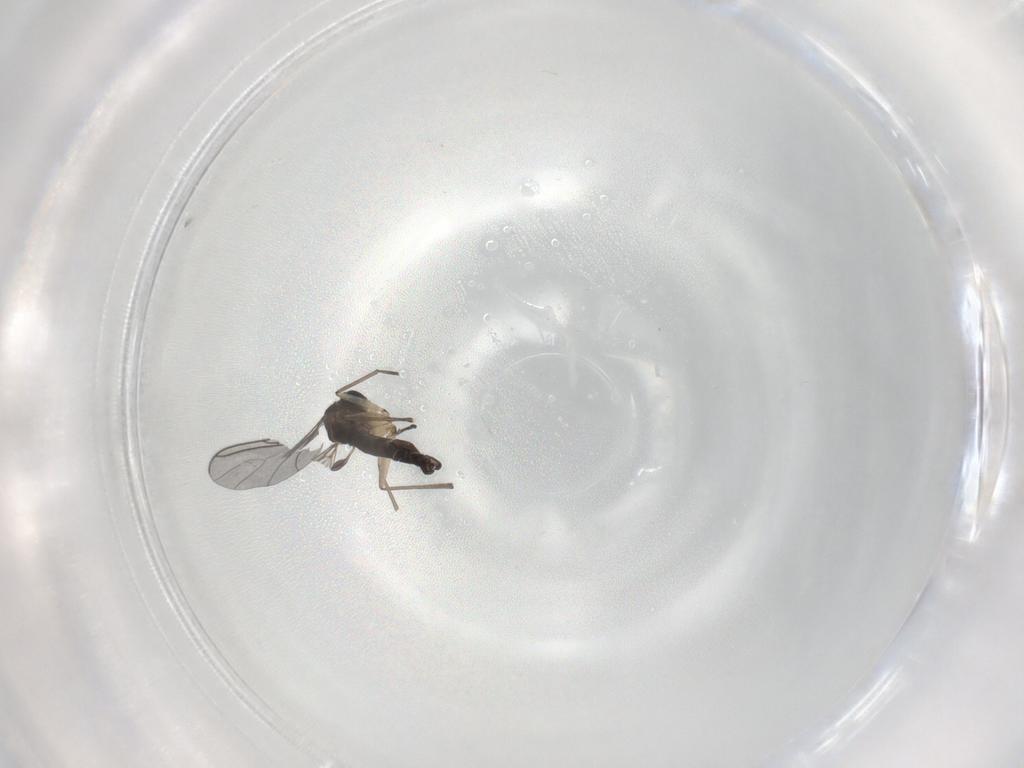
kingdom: Animalia
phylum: Arthropoda
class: Insecta
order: Diptera
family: Sciaridae
